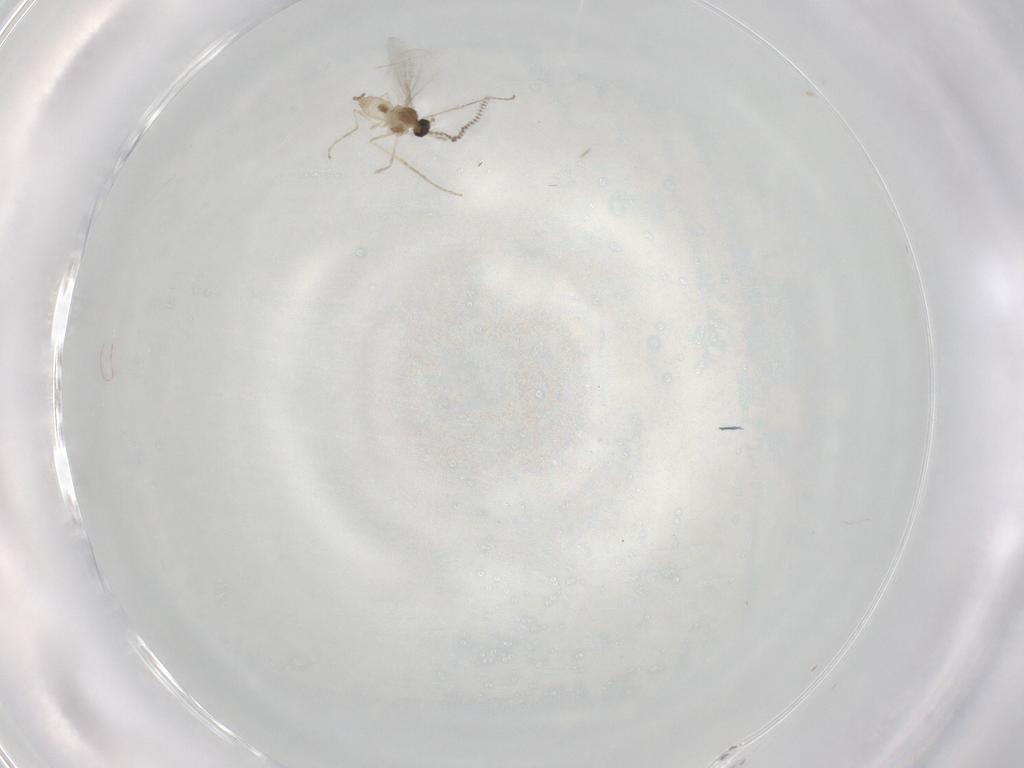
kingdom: Animalia
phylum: Arthropoda
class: Insecta
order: Diptera
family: Cecidomyiidae
